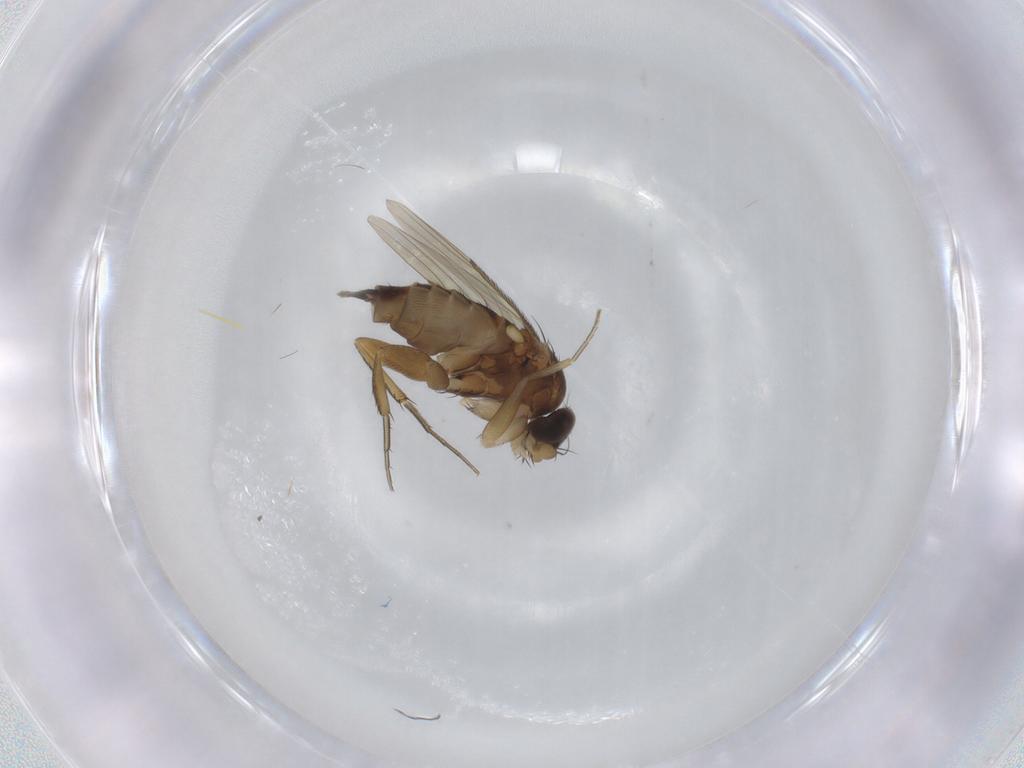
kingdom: Animalia
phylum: Arthropoda
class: Insecta
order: Diptera
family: Phoridae
